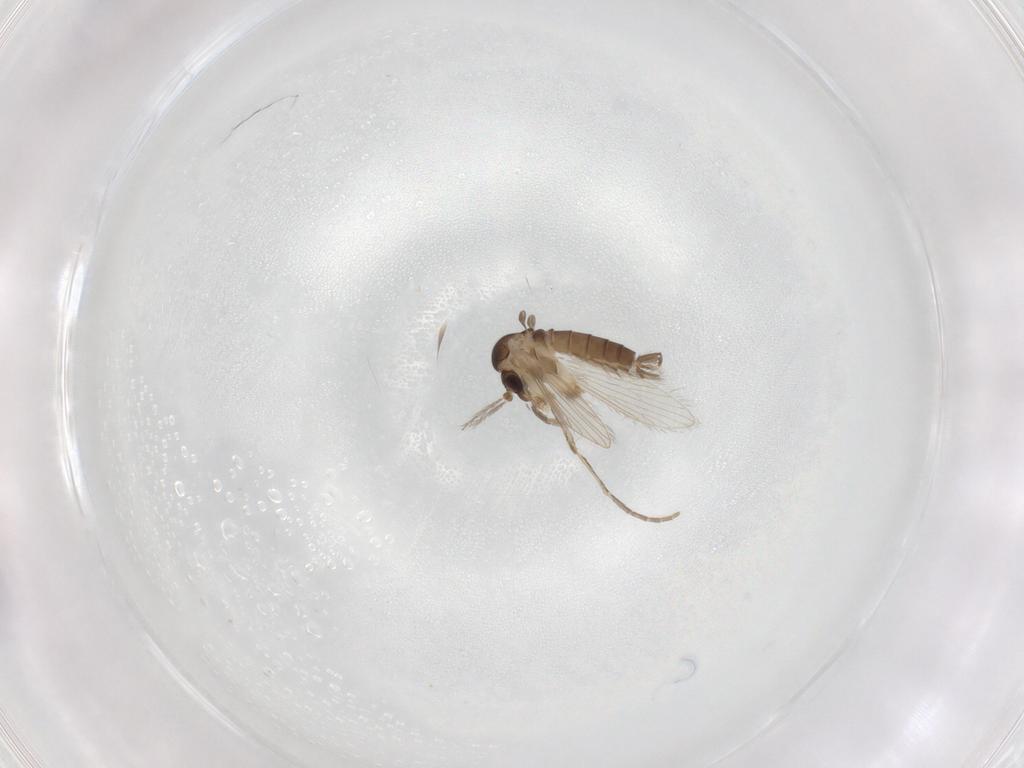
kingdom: Animalia
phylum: Arthropoda
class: Insecta
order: Diptera
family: Psychodidae
